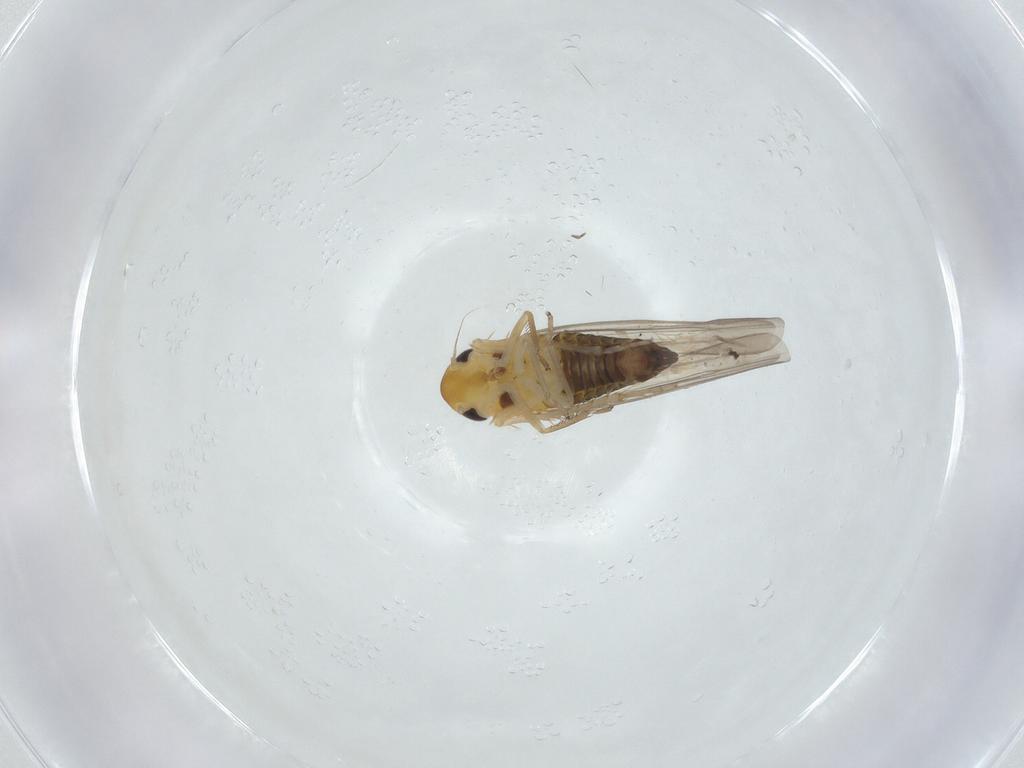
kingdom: Animalia
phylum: Arthropoda
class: Insecta
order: Hemiptera
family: Cicadellidae
